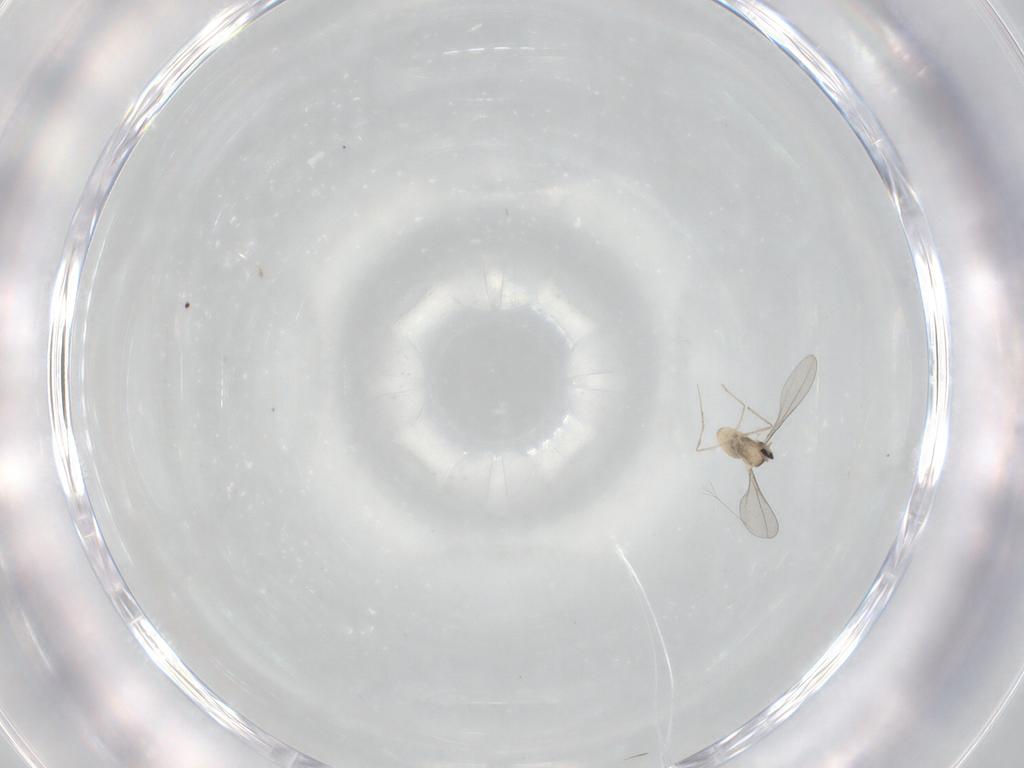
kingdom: Animalia
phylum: Arthropoda
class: Insecta
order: Diptera
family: Cecidomyiidae
